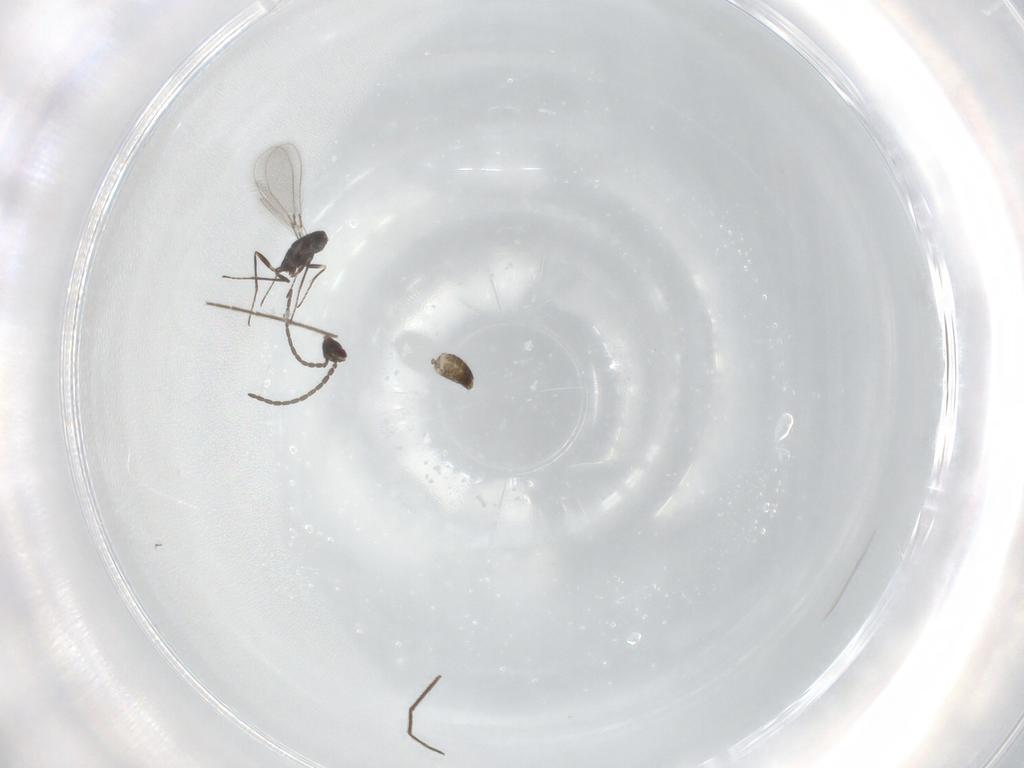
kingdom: Animalia
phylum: Arthropoda
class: Insecta
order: Hymenoptera
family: Mymaridae
